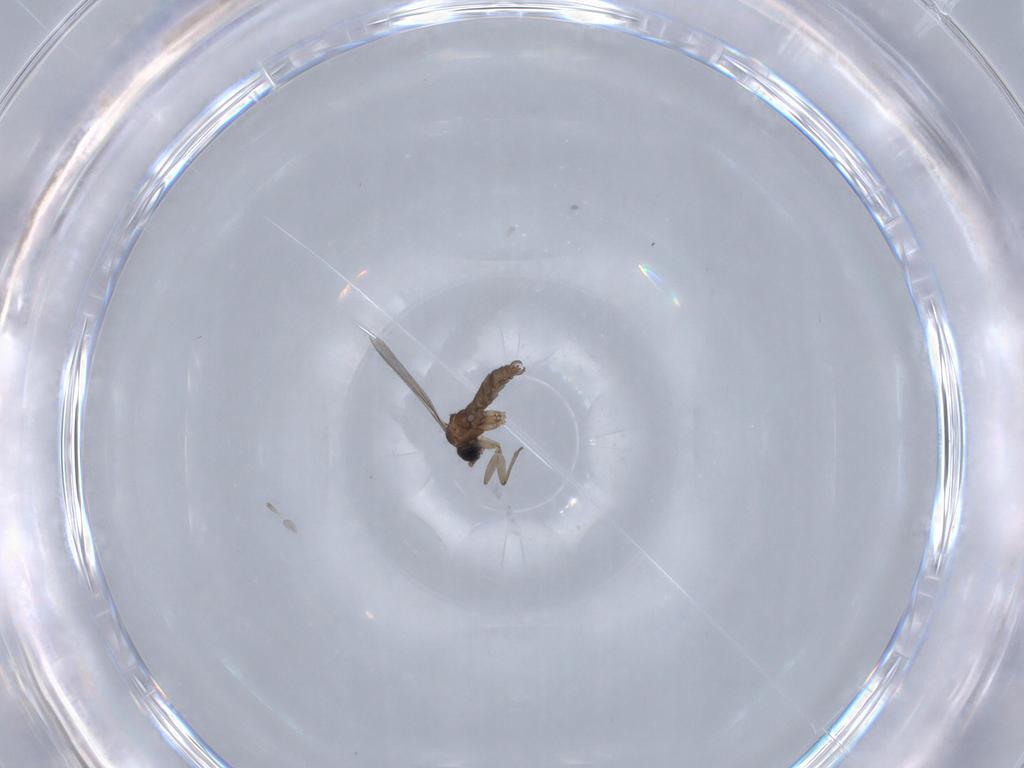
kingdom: Animalia
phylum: Arthropoda
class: Insecta
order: Diptera
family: Sciaridae
